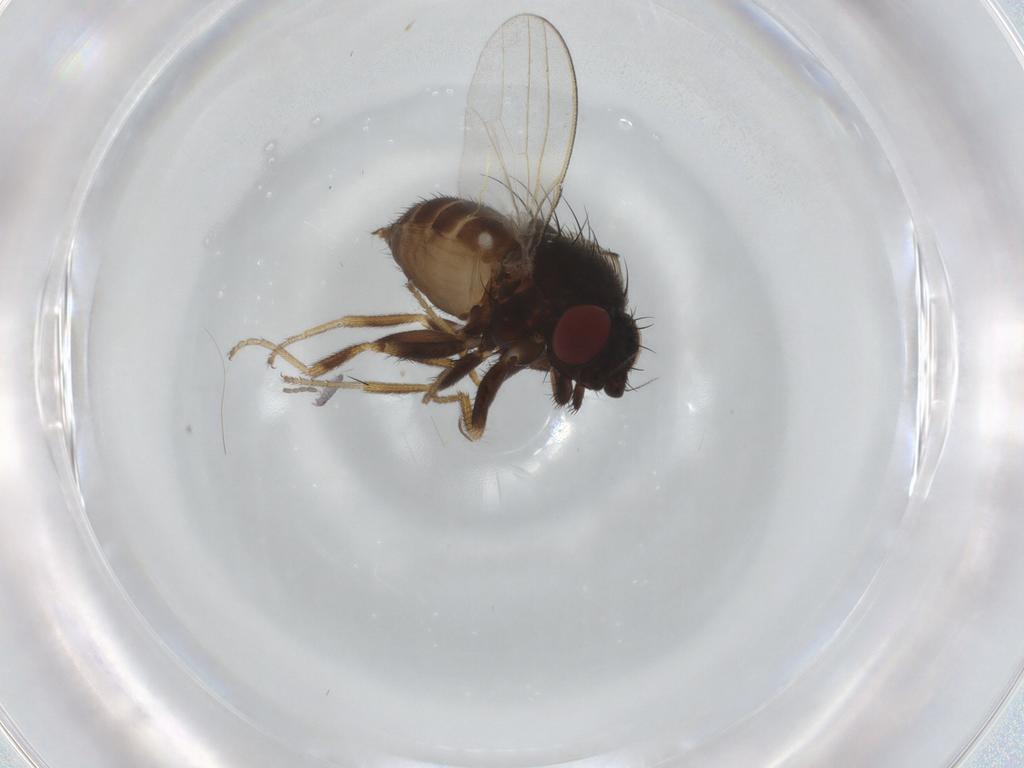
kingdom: Animalia
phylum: Arthropoda
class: Insecta
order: Diptera
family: Milichiidae
